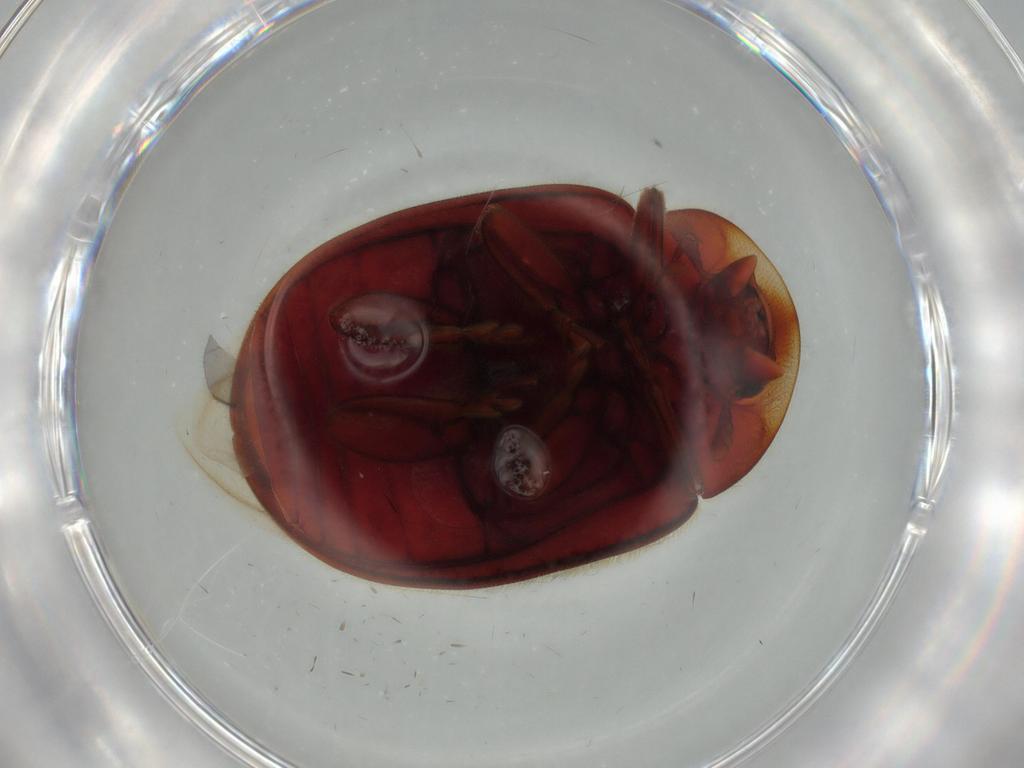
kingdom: Animalia
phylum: Arthropoda
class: Insecta
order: Coleoptera
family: Coccinellidae
